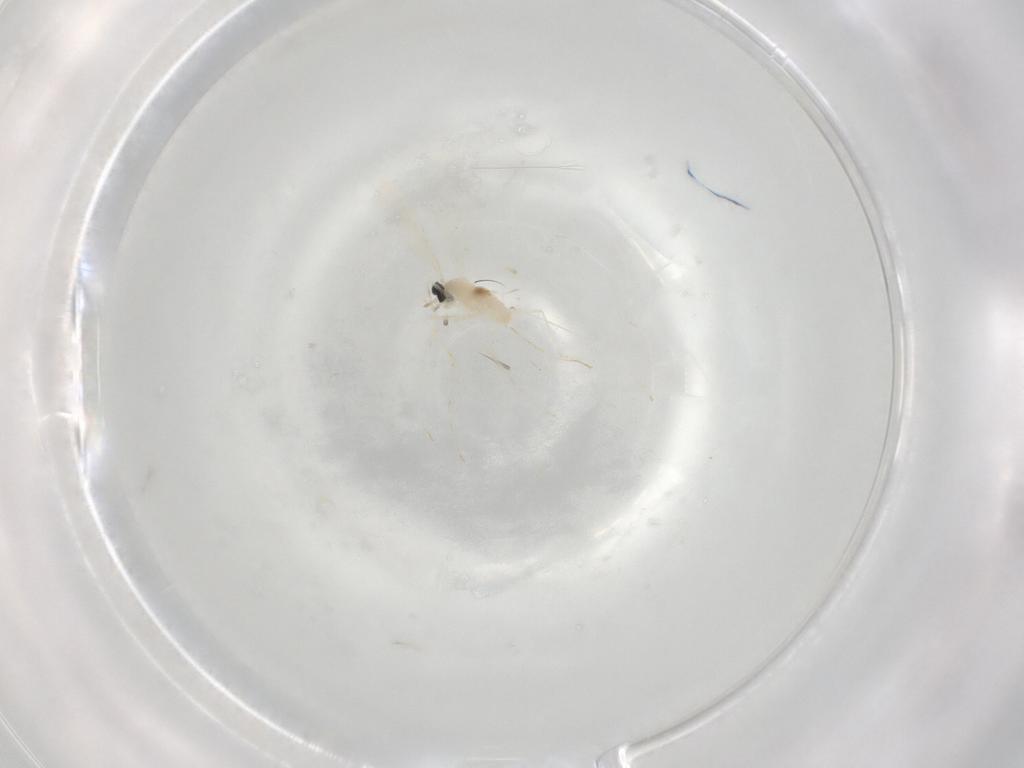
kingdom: Animalia
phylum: Arthropoda
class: Insecta
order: Diptera
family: Cecidomyiidae
